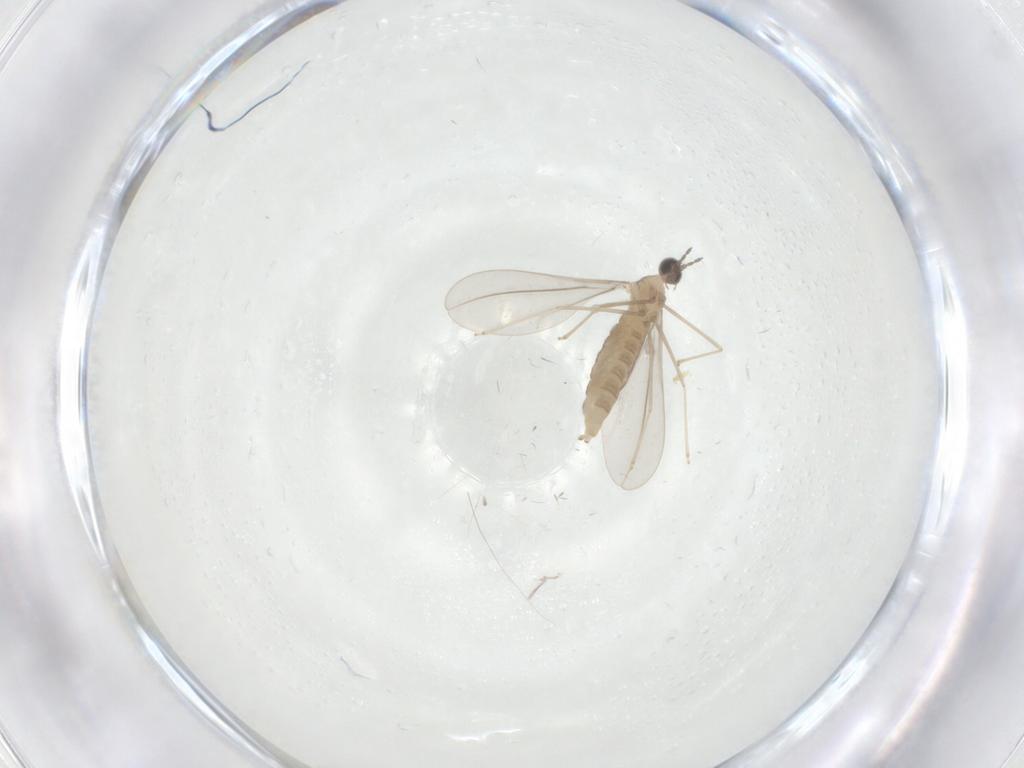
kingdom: Animalia
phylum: Arthropoda
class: Insecta
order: Diptera
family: Cecidomyiidae
